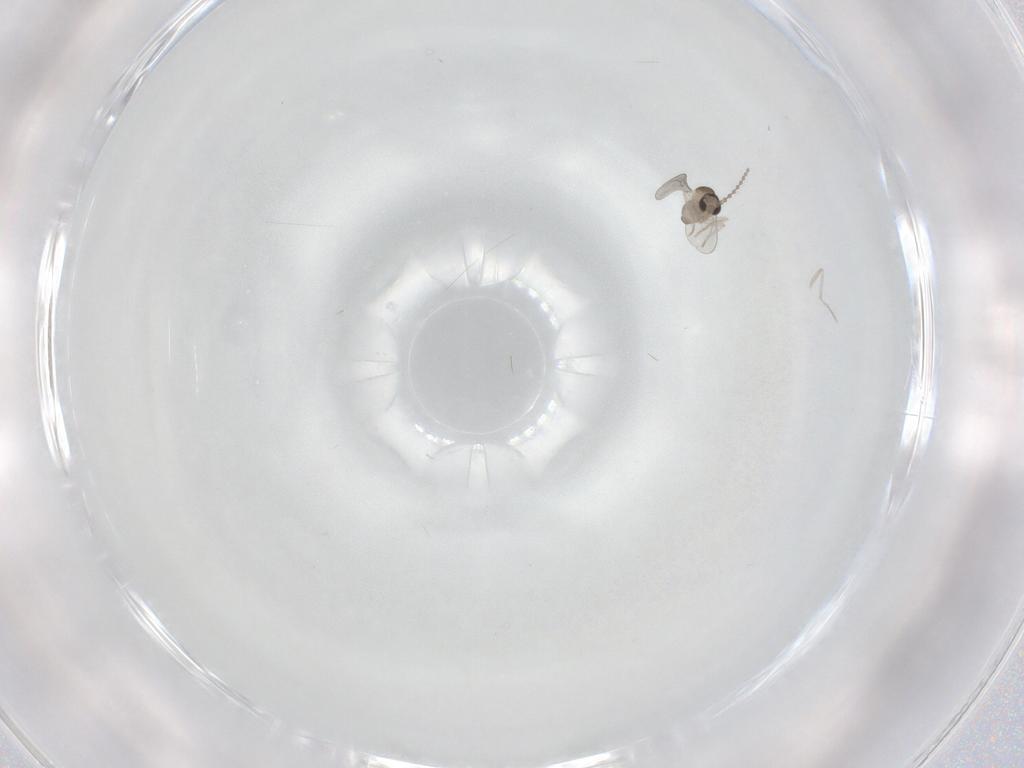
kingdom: Animalia
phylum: Arthropoda
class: Insecta
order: Diptera
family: Cecidomyiidae
